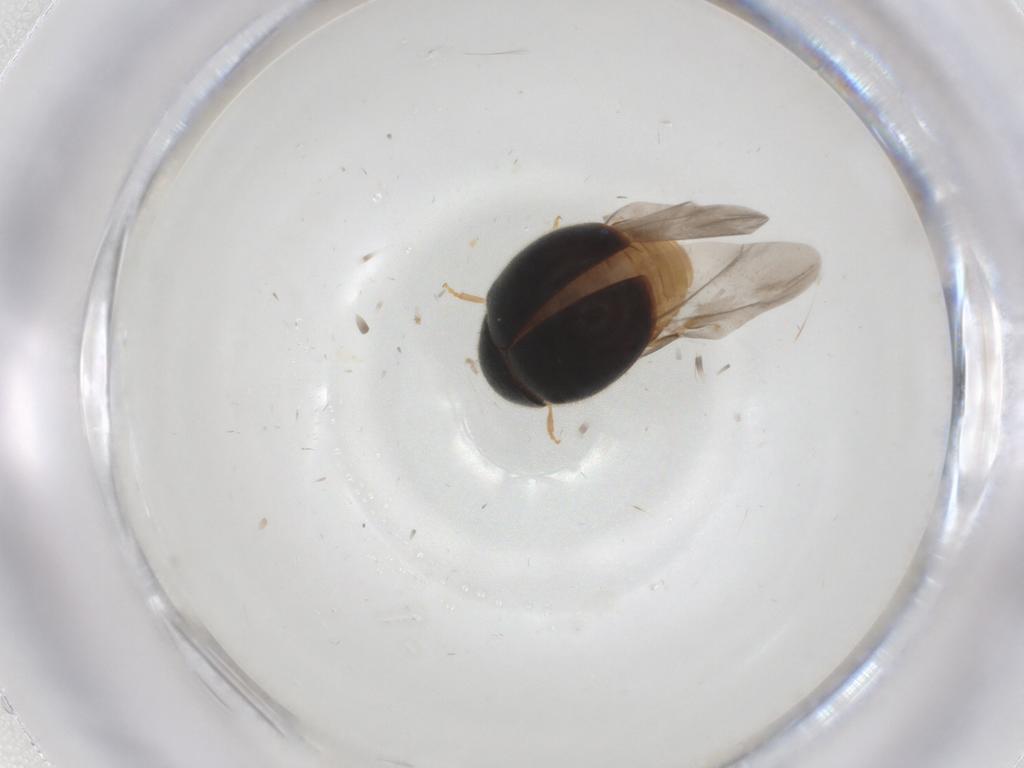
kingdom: Animalia
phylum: Arthropoda
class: Insecta
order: Coleoptera
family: Coccinellidae
